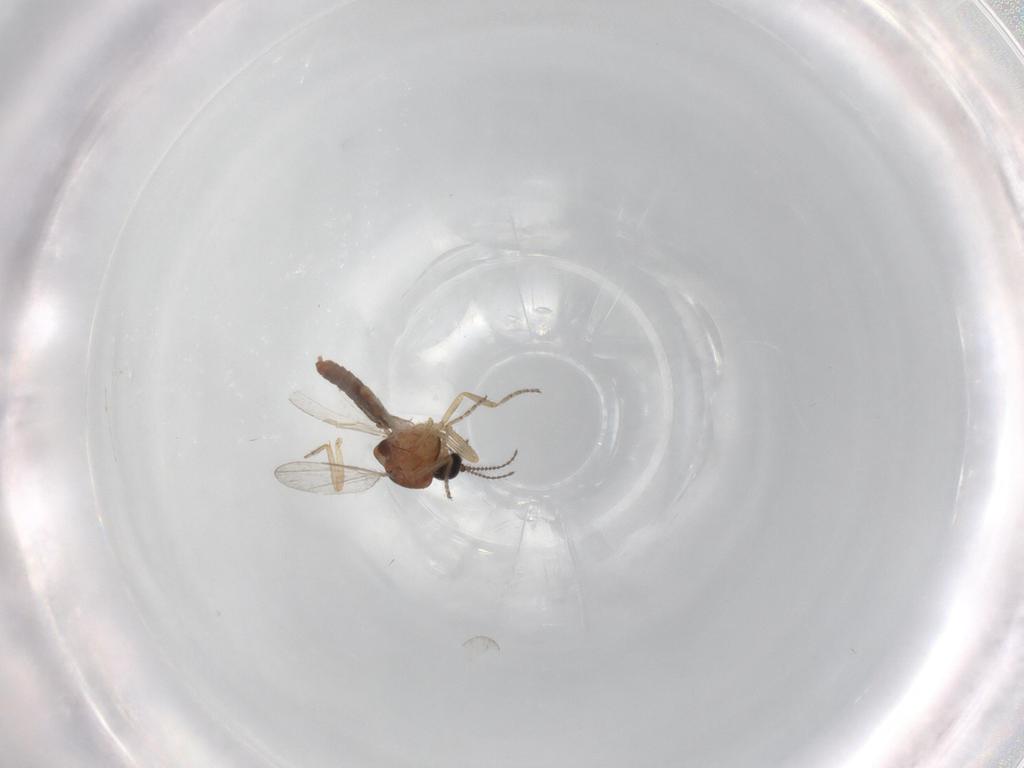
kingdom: Animalia
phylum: Arthropoda
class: Insecta
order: Diptera
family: Ceratopogonidae
